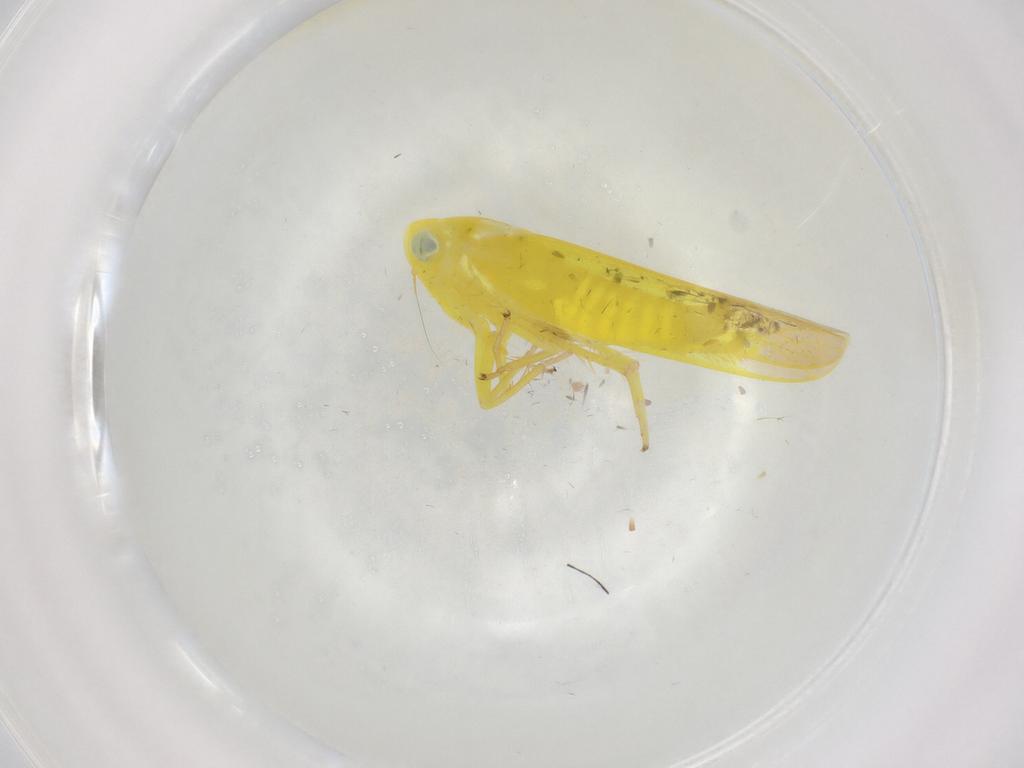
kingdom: Animalia
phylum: Arthropoda
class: Insecta
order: Hemiptera
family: Cicadellidae
